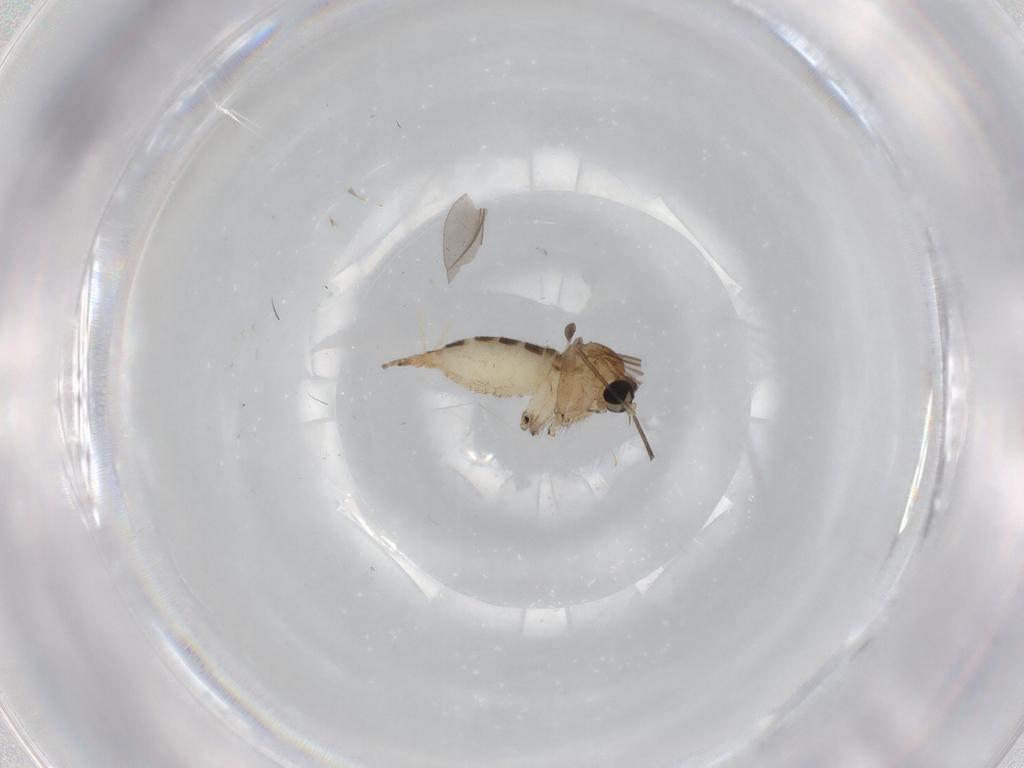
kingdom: Animalia
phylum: Arthropoda
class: Insecta
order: Diptera
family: Sciaridae
